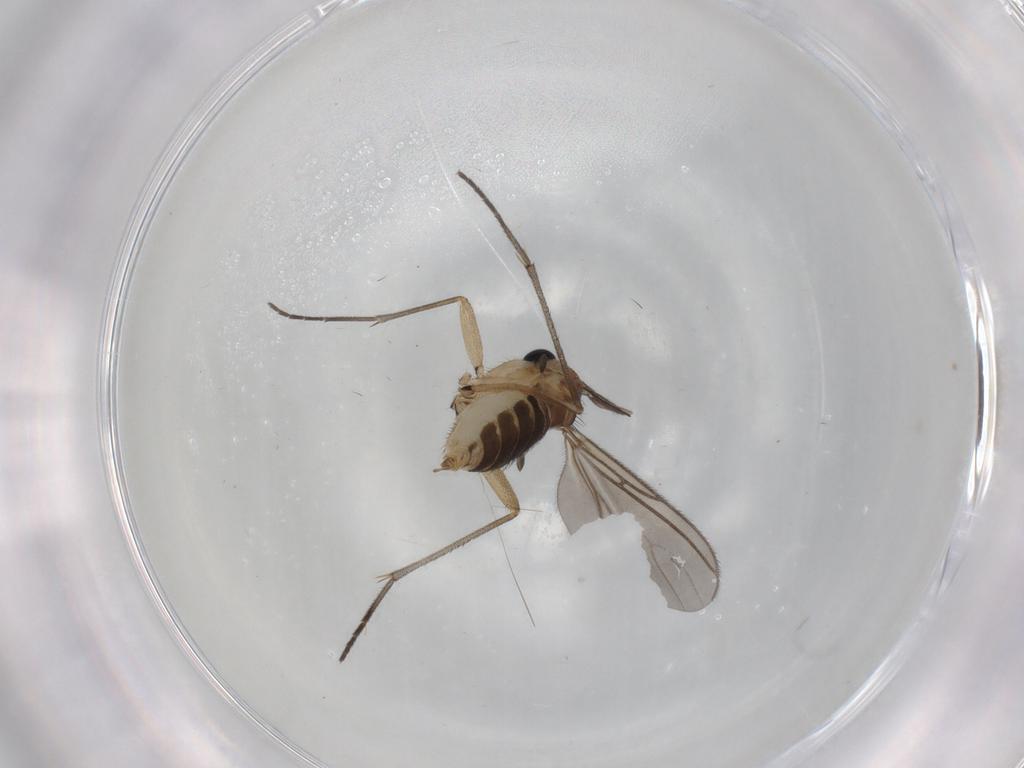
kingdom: Animalia
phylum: Arthropoda
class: Insecta
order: Diptera
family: Sciaridae
